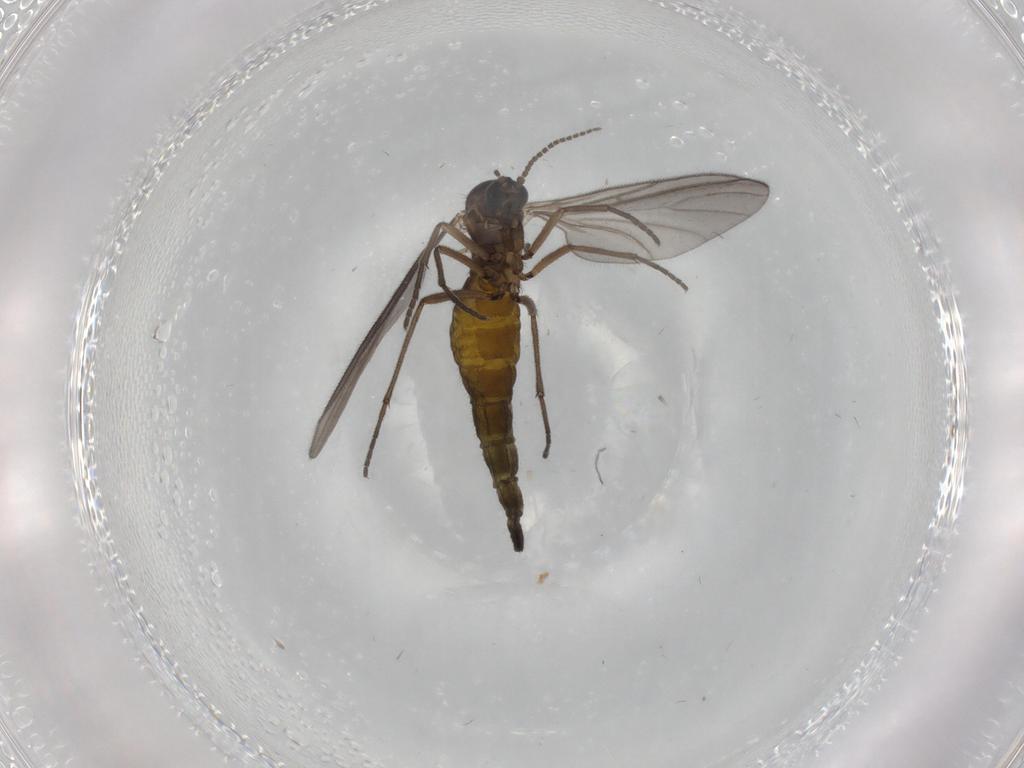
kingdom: Animalia
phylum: Arthropoda
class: Insecta
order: Diptera
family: Sciaridae
